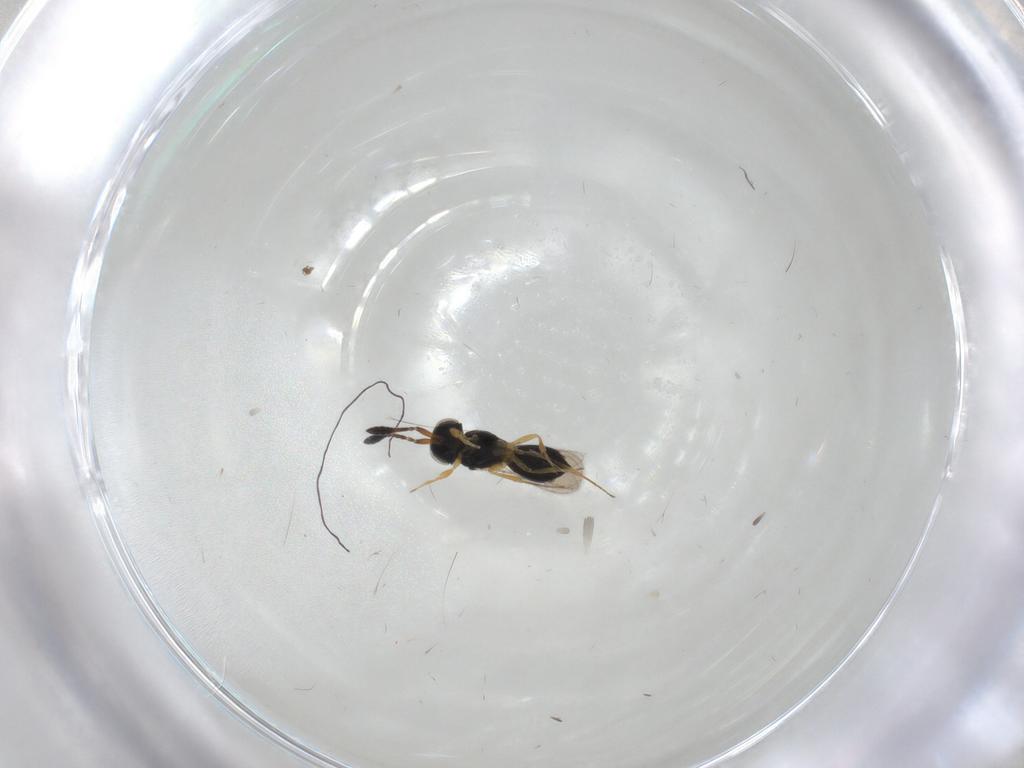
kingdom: Animalia
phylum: Arthropoda
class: Insecta
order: Hymenoptera
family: Scelionidae
